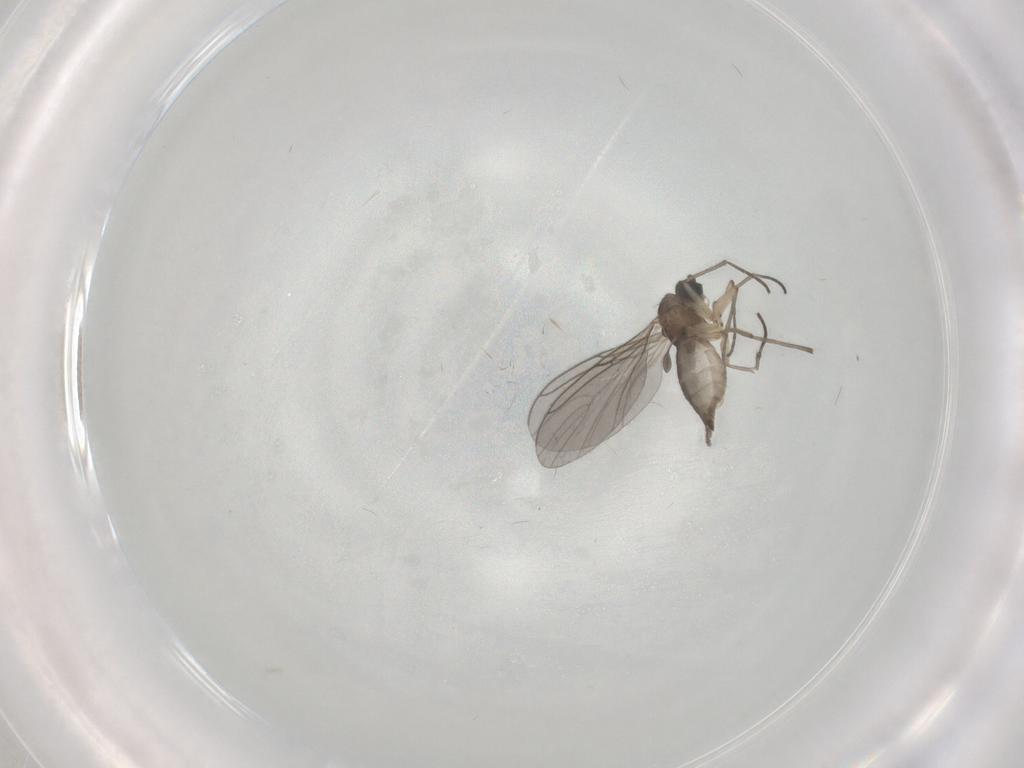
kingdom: Animalia
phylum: Arthropoda
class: Insecta
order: Diptera
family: Sciaridae
